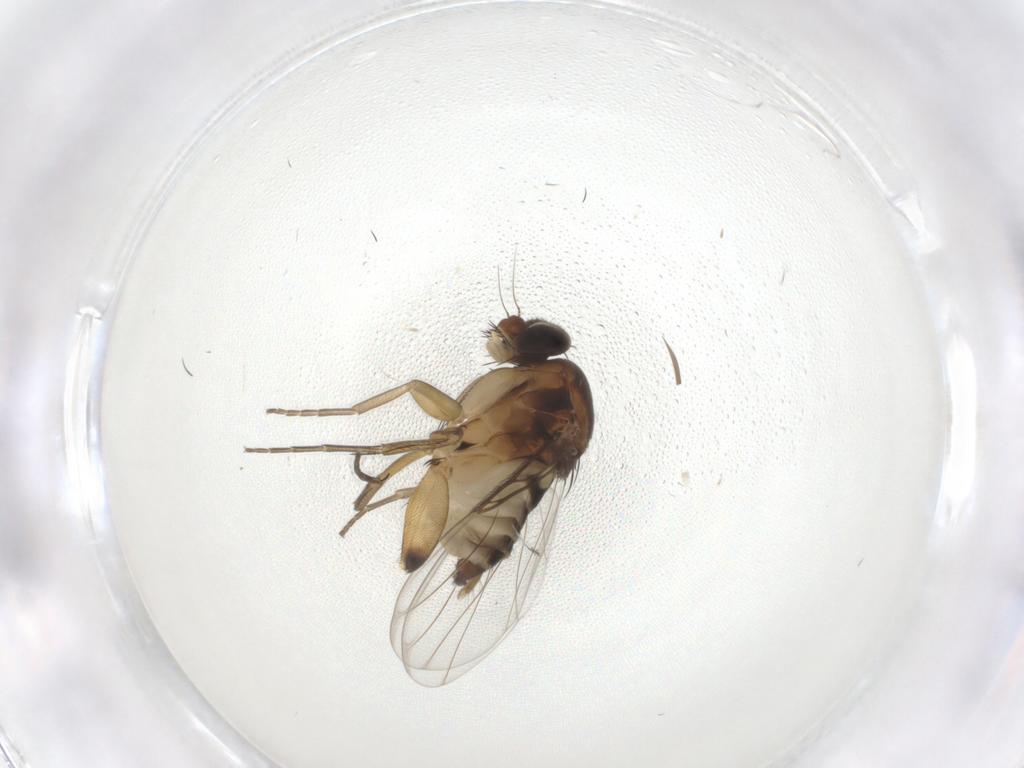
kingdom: Animalia
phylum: Arthropoda
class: Insecta
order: Diptera
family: Phoridae
